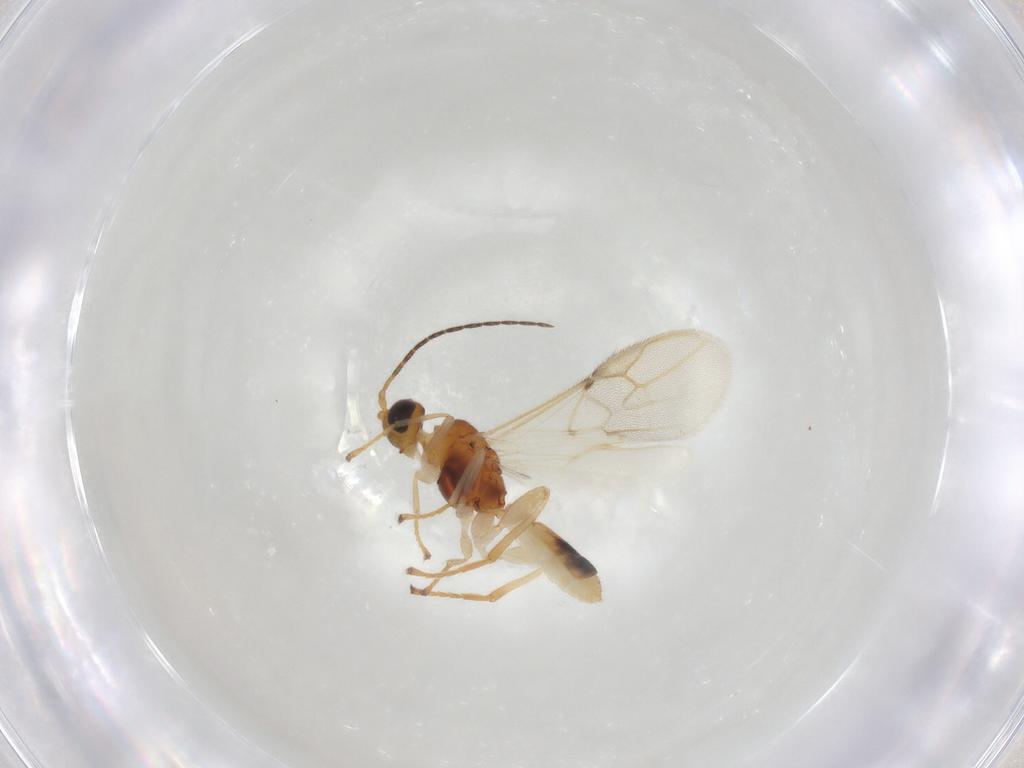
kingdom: Animalia
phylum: Arthropoda
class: Insecta
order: Hymenoptera
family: Braconidae
